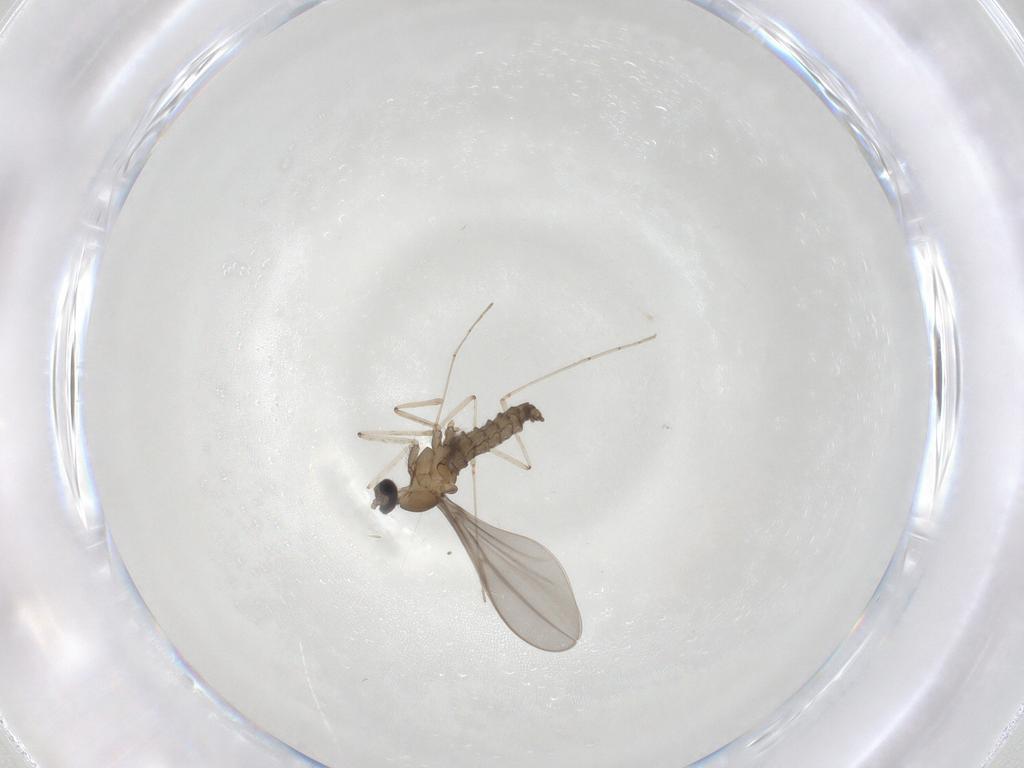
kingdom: Animalia
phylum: Arthropoda
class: Insecta
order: Diptera
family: Cecidomyiidae
